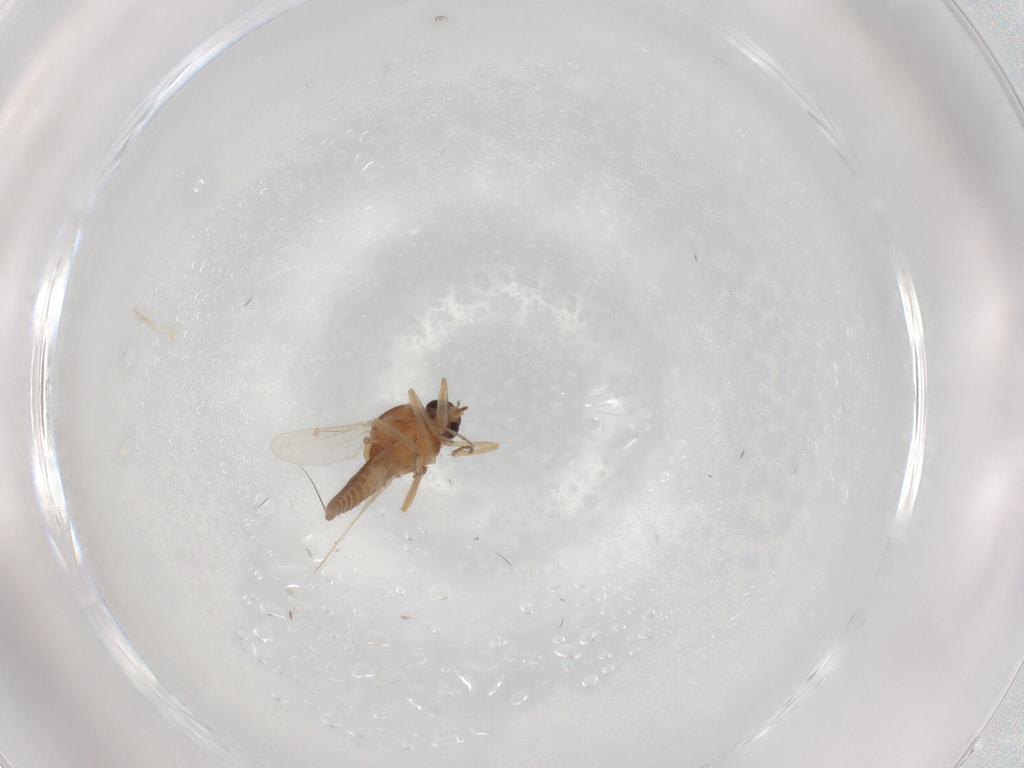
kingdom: Animalia
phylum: Arthropoda
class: Insecta
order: Diptera
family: Ceratopogonidae
